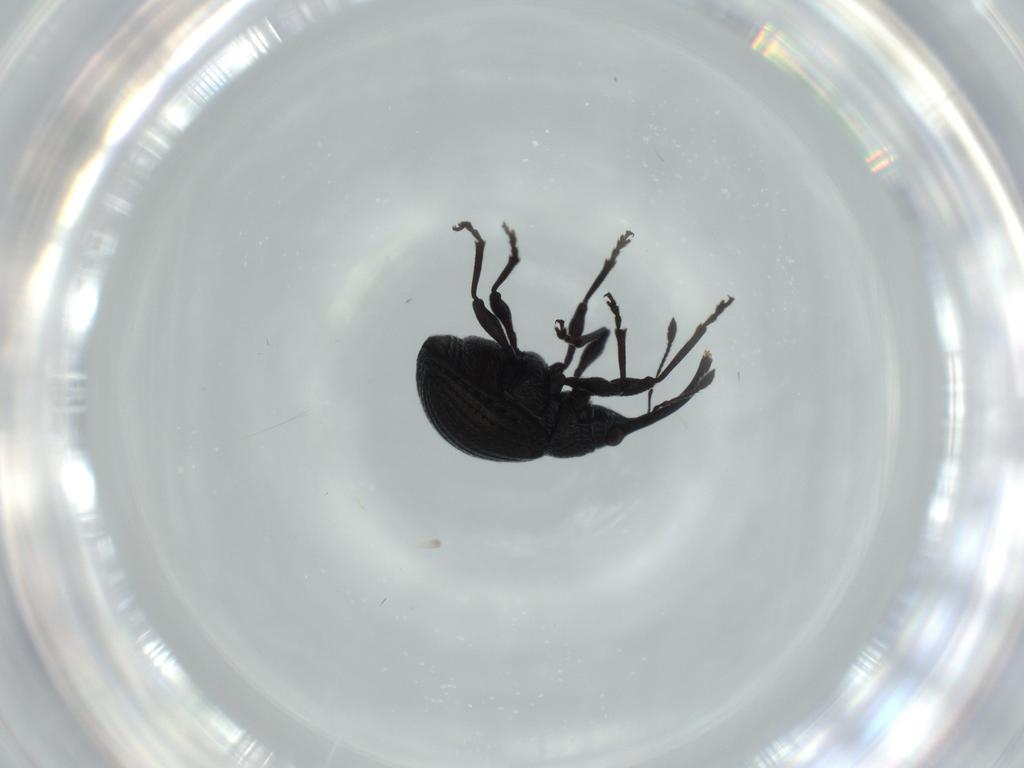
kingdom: Animalia
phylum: Arthropoda
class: Insecta
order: Coleoptera
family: Brentidae
